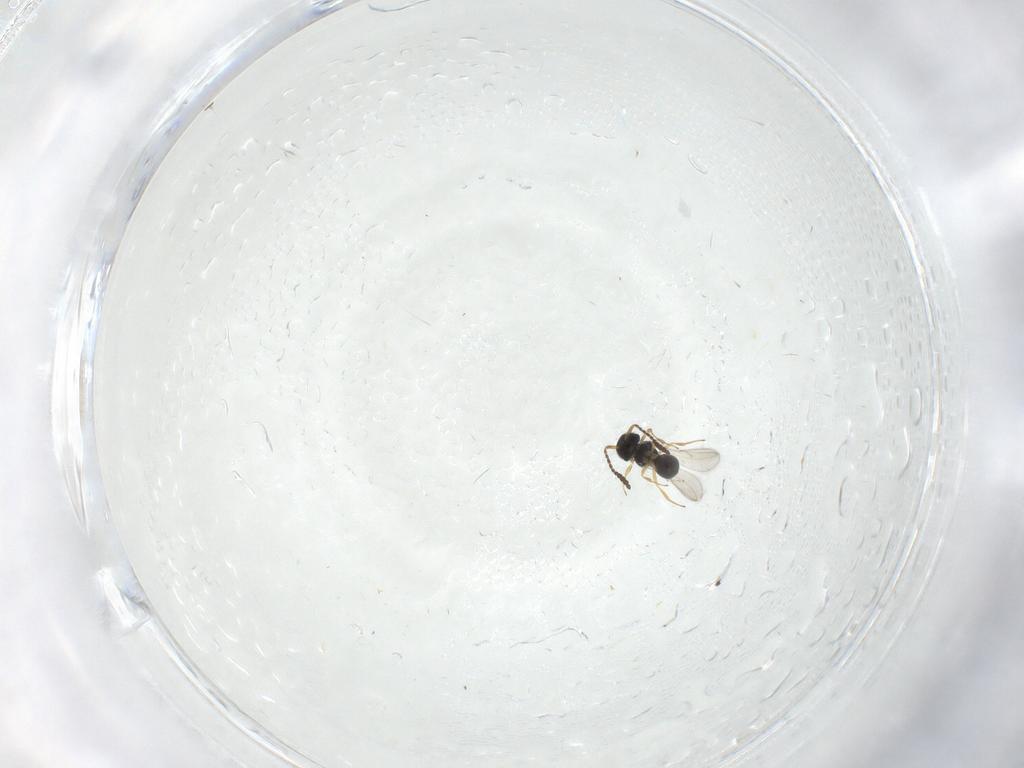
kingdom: Animalia
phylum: Arthropoda
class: Insecta
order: Hymenoptera
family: Scelionidae
